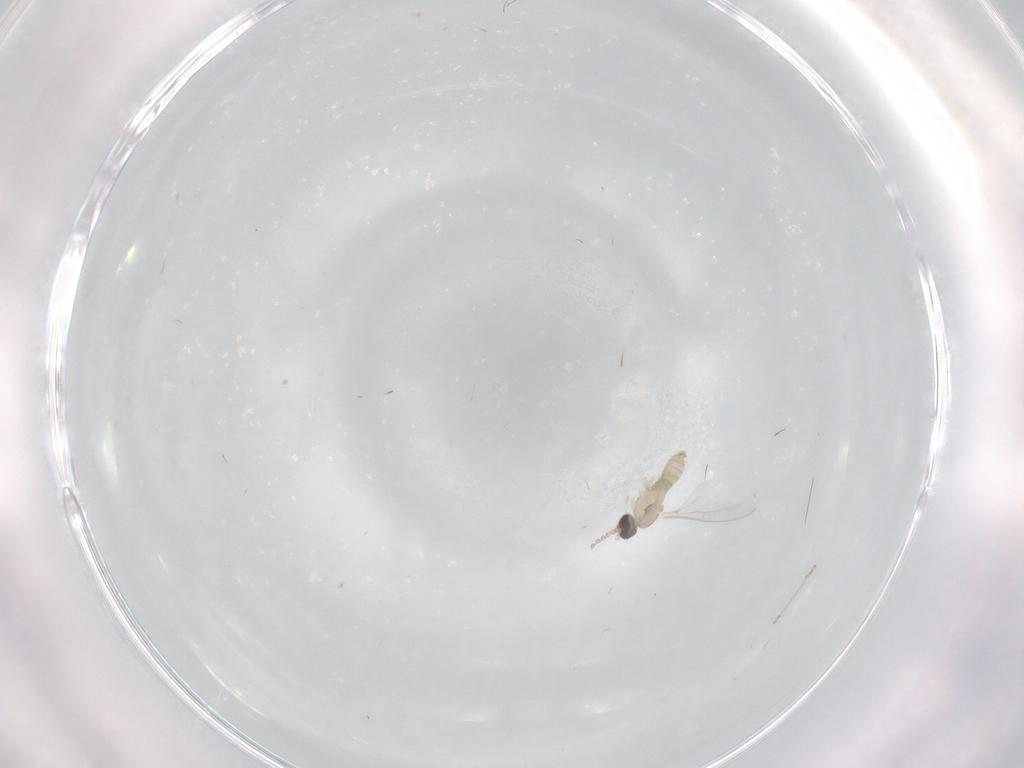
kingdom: Animalia
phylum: Arthropoda
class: Insecta
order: Diptera
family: Cecidomyiidae
